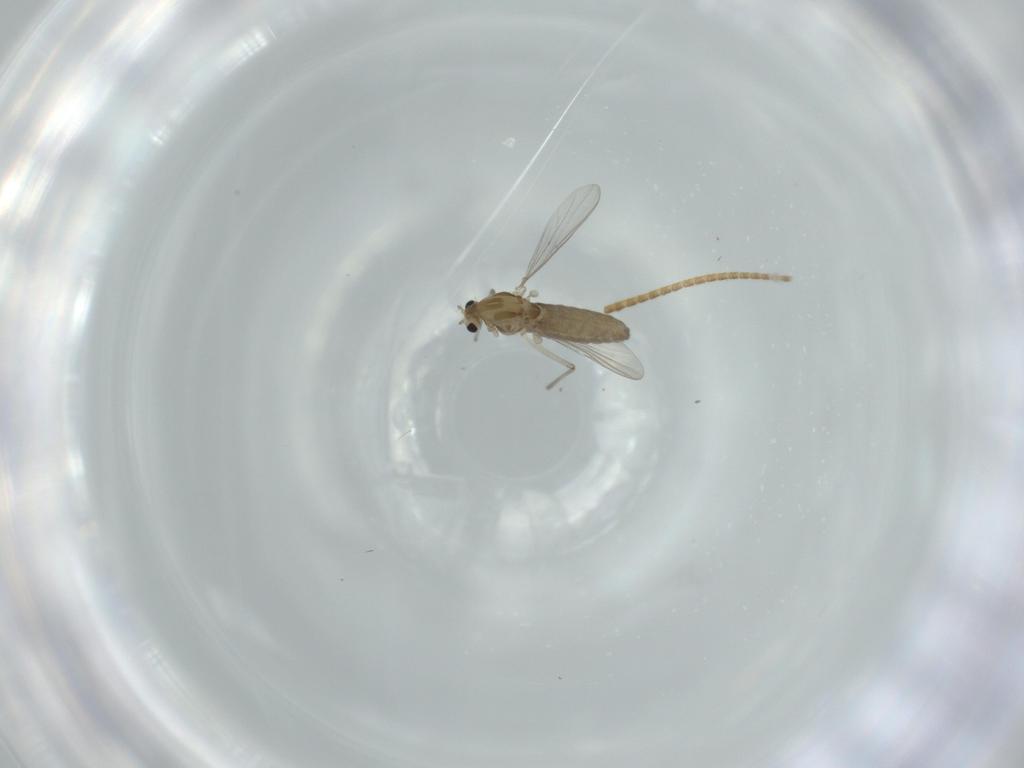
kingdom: Animalia
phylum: Arthropoda
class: Insecta
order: Diptera
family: Chironomidae
